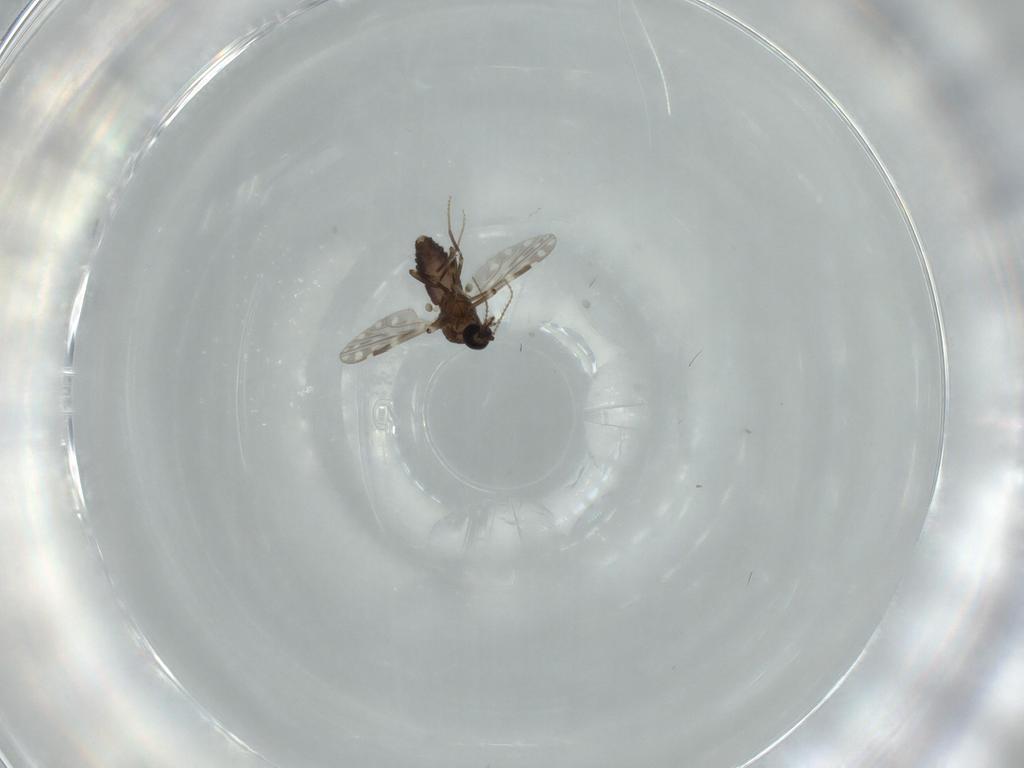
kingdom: Animalia
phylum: Arthropoda
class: Insecta
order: Diptera
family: Ceratopogonidae
